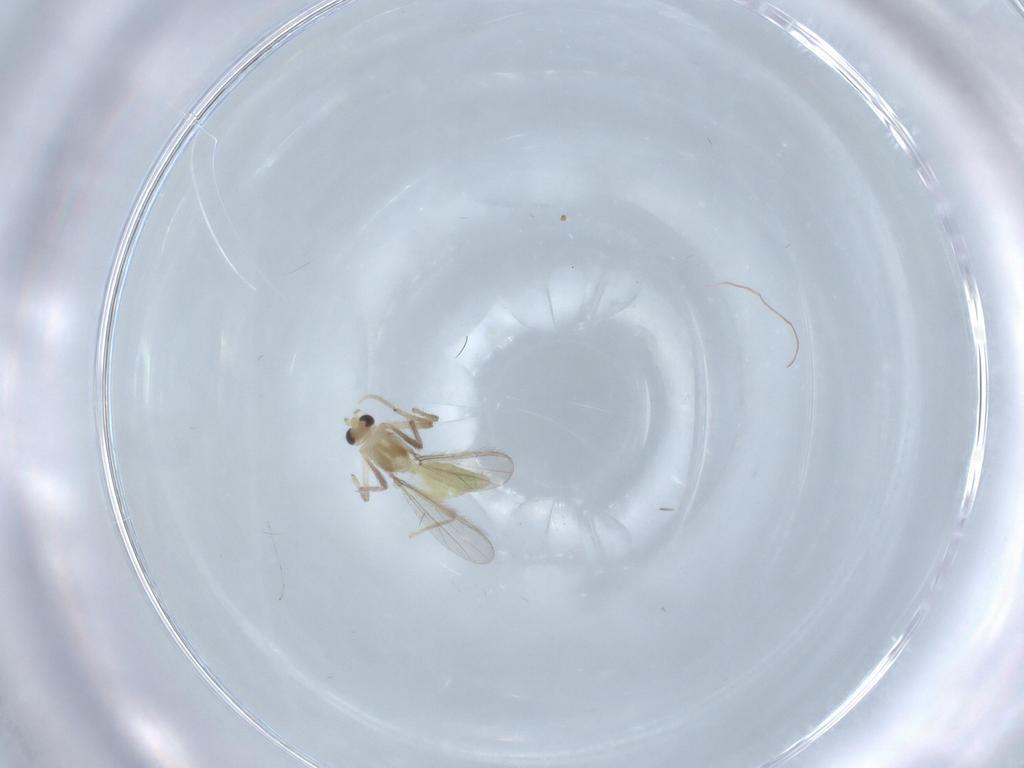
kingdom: Animalia
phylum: Arthropoda
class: Insecta
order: Diptera
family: Chironomidae
